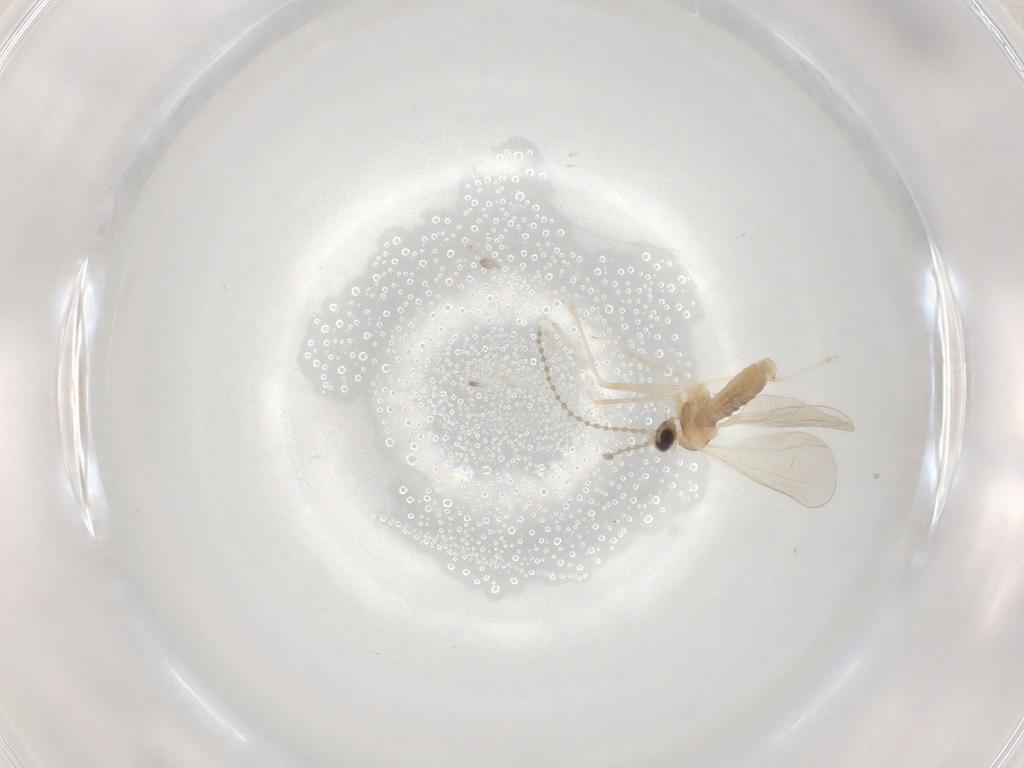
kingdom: Animalia
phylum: Arthropoda
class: Insecta
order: Diptera
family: Cecidomyiidae
